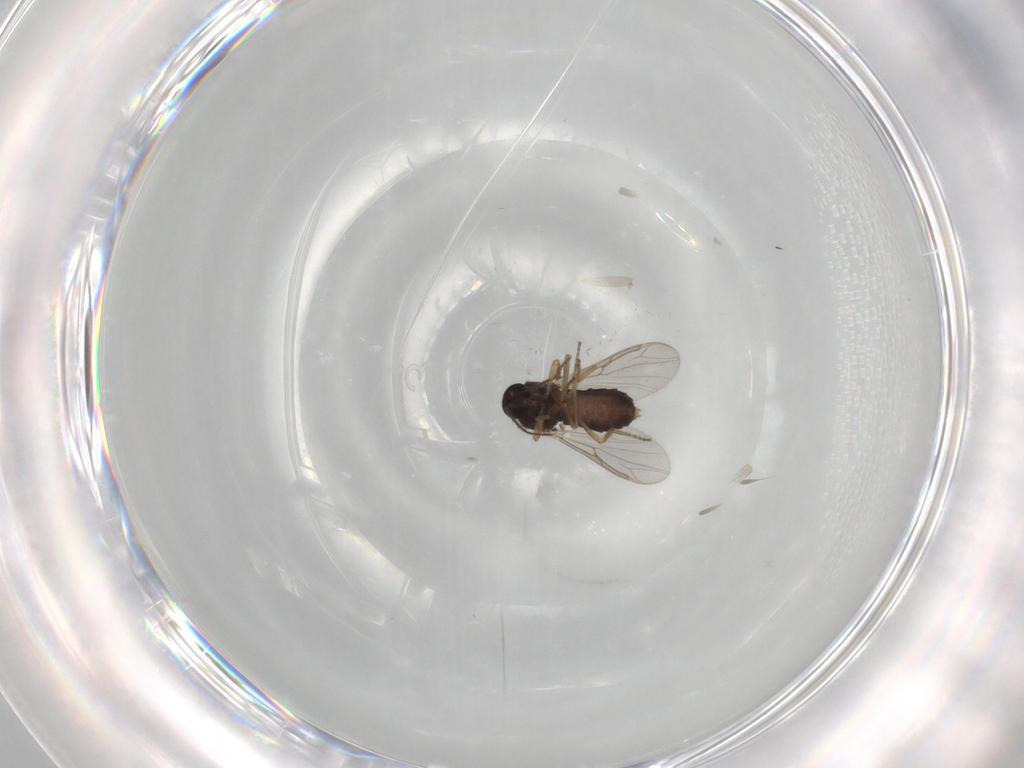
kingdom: Animalia
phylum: Arthropoda
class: Insecta
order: Diptera
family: Ceratopogonidae
